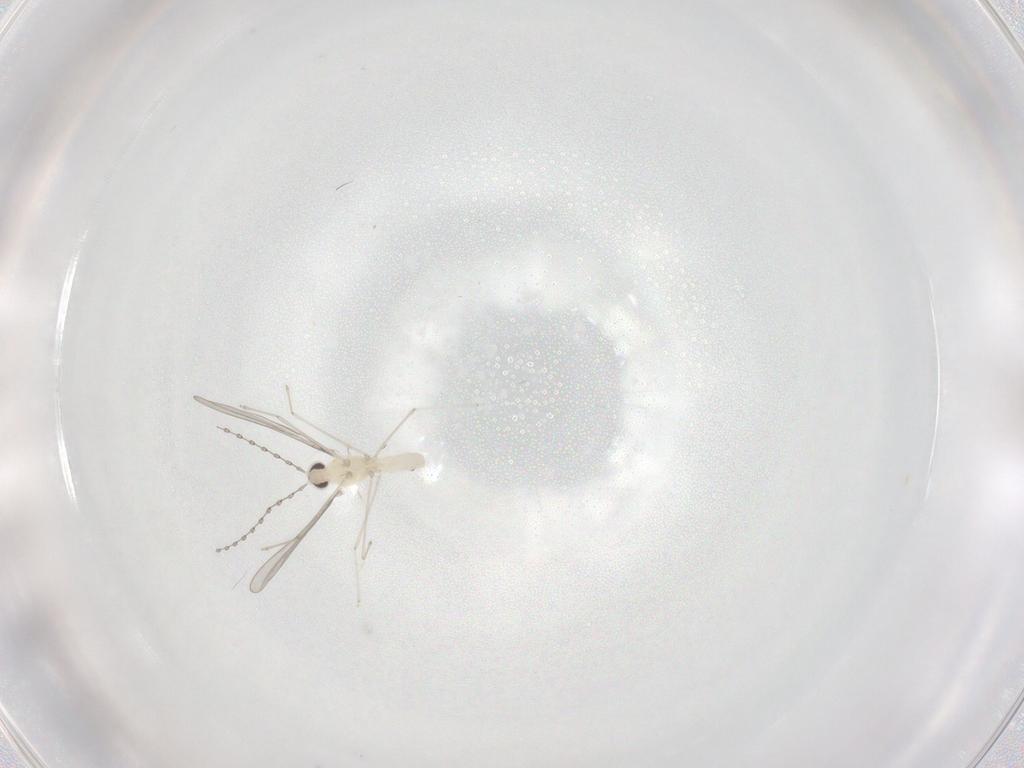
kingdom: Animalia
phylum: Arthropoda
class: Insecta
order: Diptera
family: Cecidomyiidae
